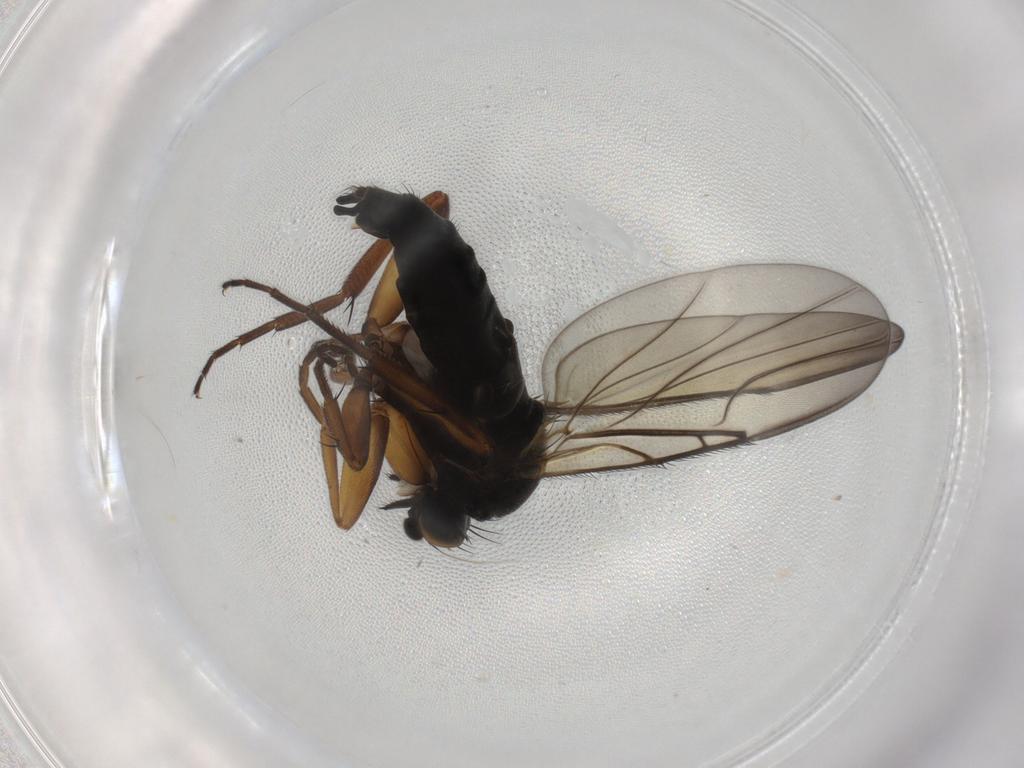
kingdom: Animalia
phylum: Arthropoda
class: Insecta
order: Diptera
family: Phoridae
